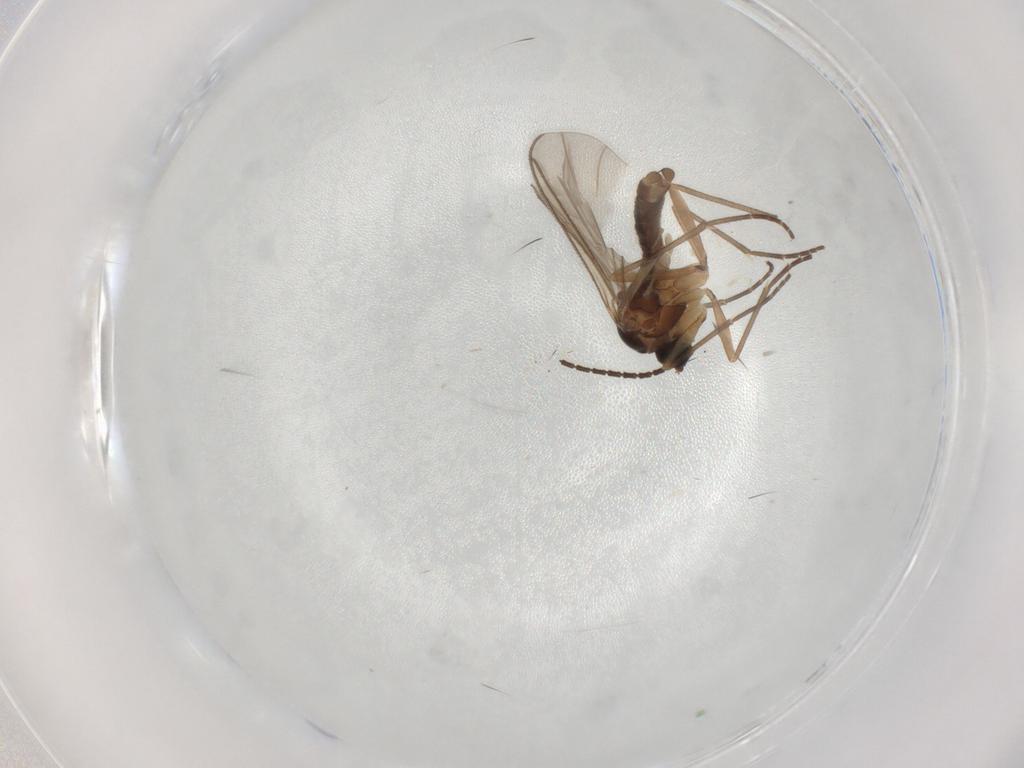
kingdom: Animalia
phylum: Arthropoda
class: Insecta
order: Diptera
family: Sciaridae
